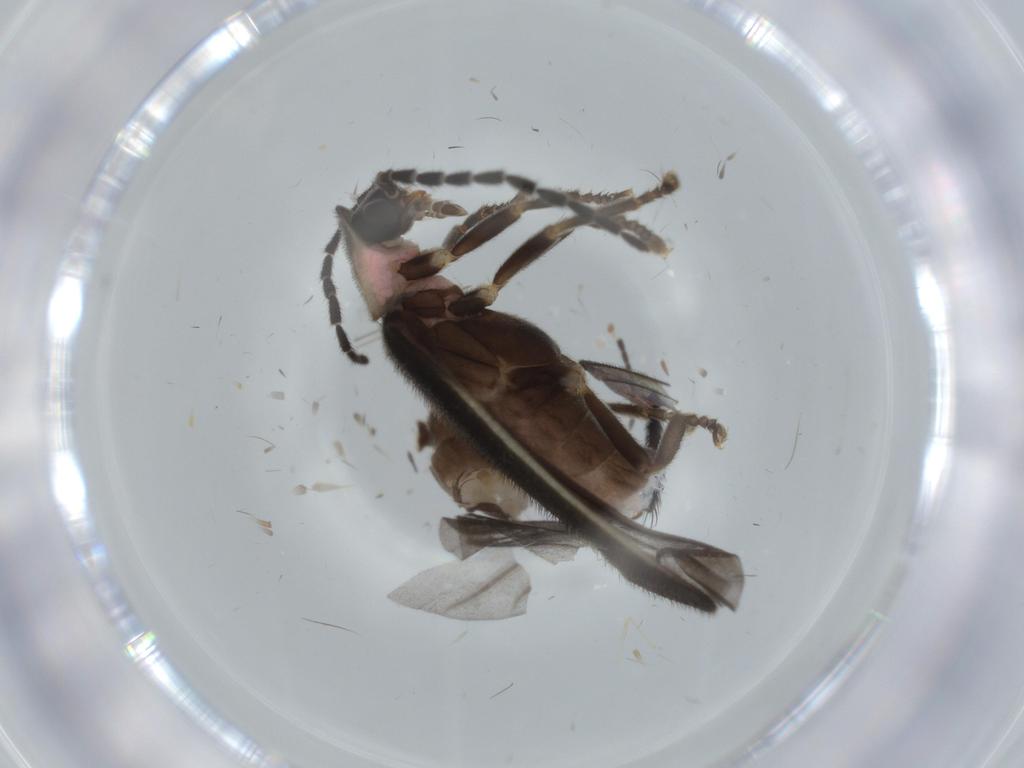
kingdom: Animalia
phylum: Arthropoda
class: Insecta
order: Coleoptera
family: Lampyridae
